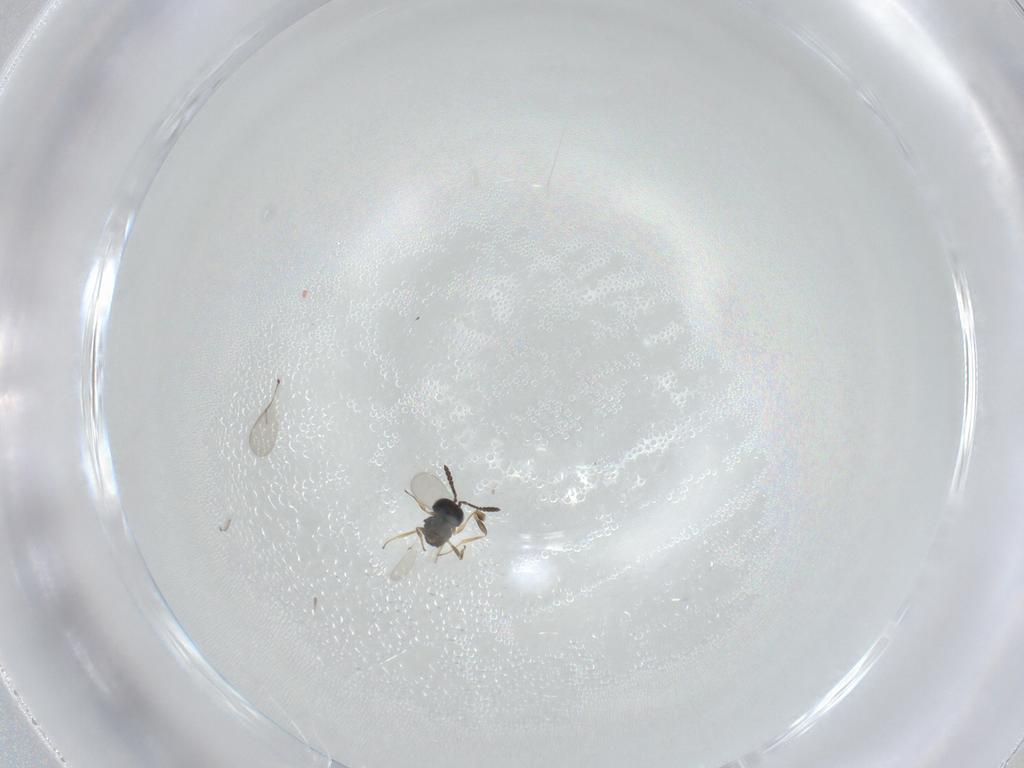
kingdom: Animalia
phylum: Arthropoda
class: Insecta
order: Hymenoptera
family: Scelionidae
